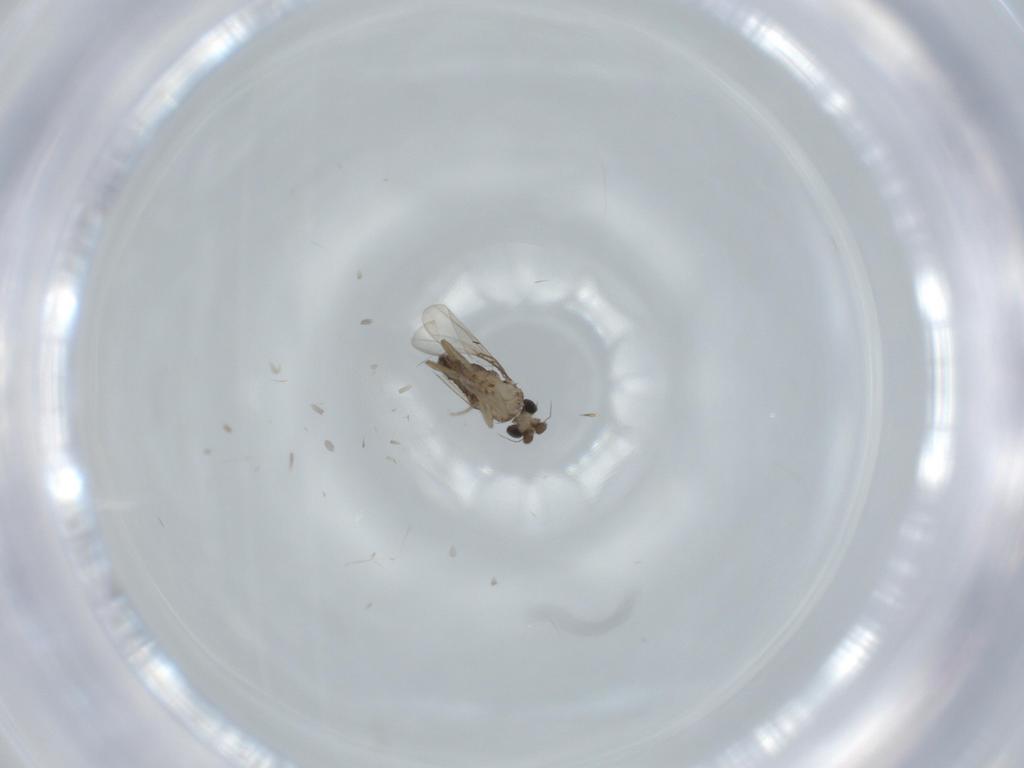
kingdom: Animalia
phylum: Arthropoda
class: Insecta
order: Diptera
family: Phoridae
